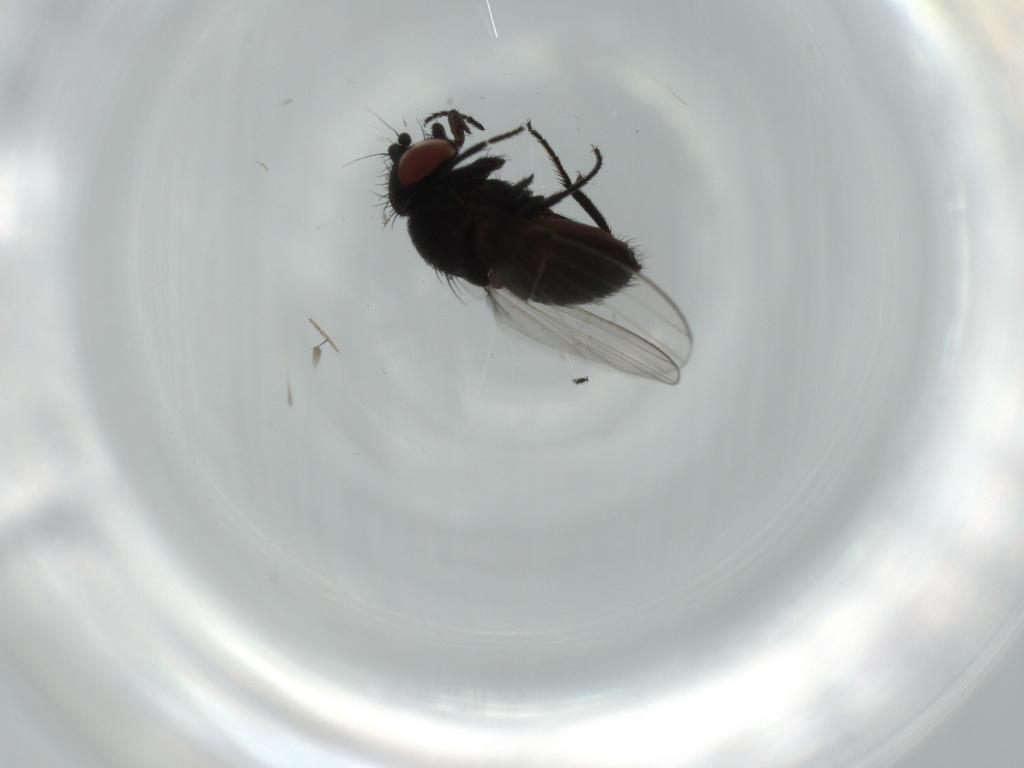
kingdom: Animalia
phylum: Arthropoda
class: Insecta
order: Diptera
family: Milichiidae
